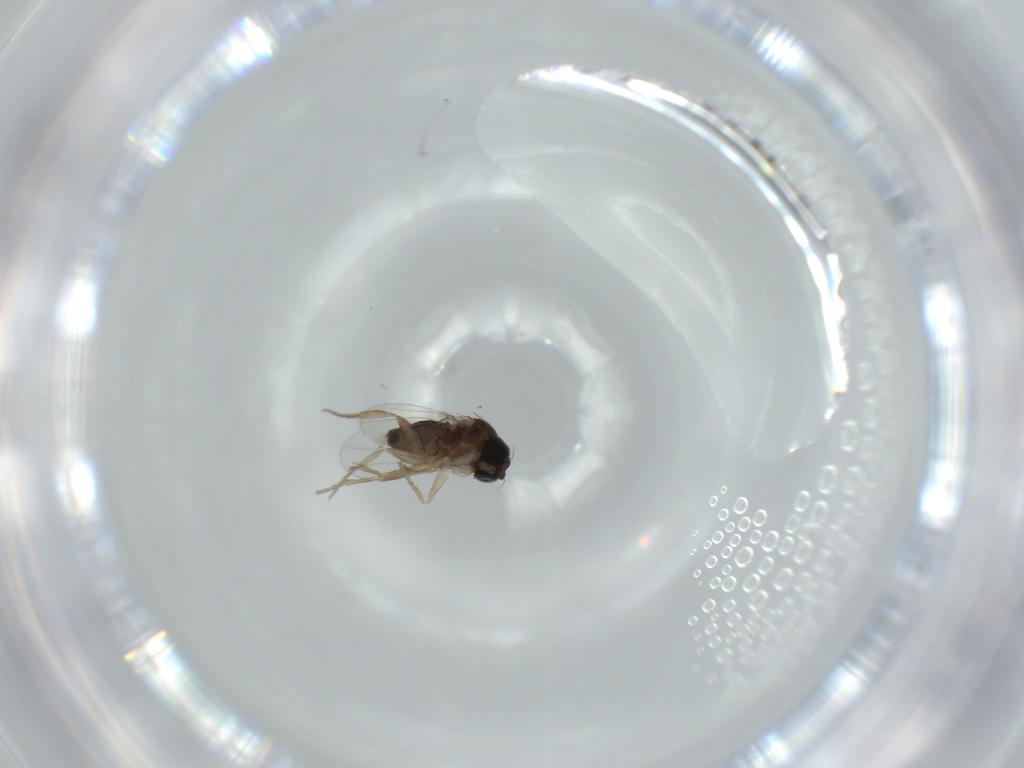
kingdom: Animalia
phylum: Arthropoda
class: Insecta
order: Diptera
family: Phoridae
